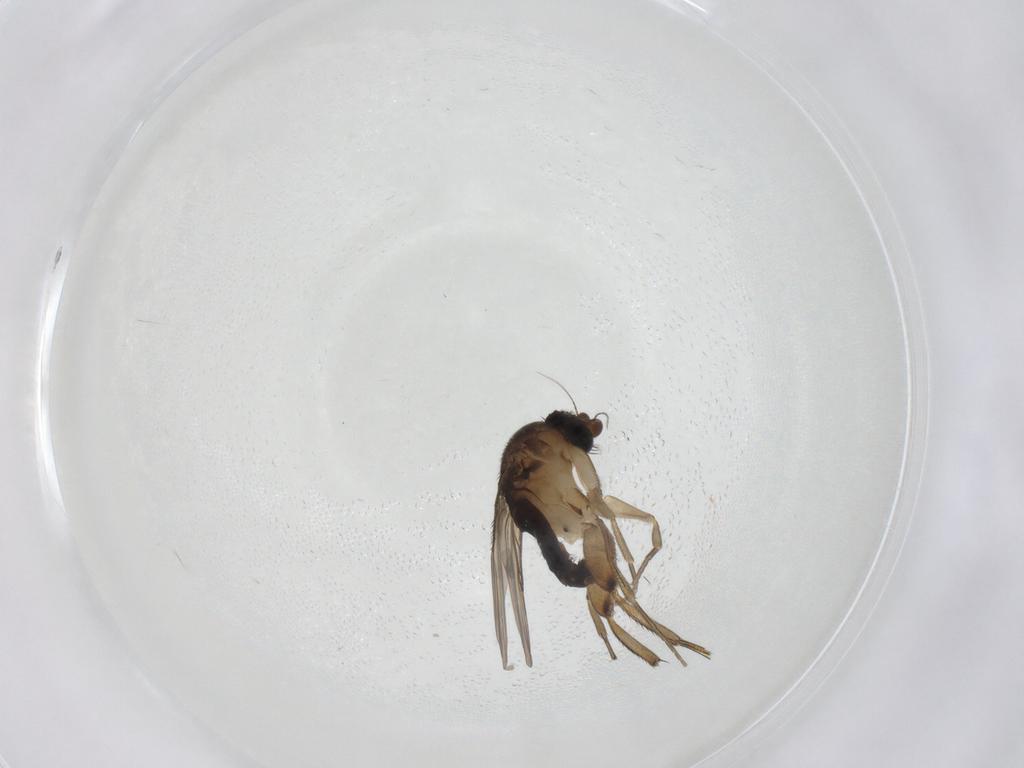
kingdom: Animalia
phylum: Arthropoda
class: Insecta
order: Diptera
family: Phoridae
